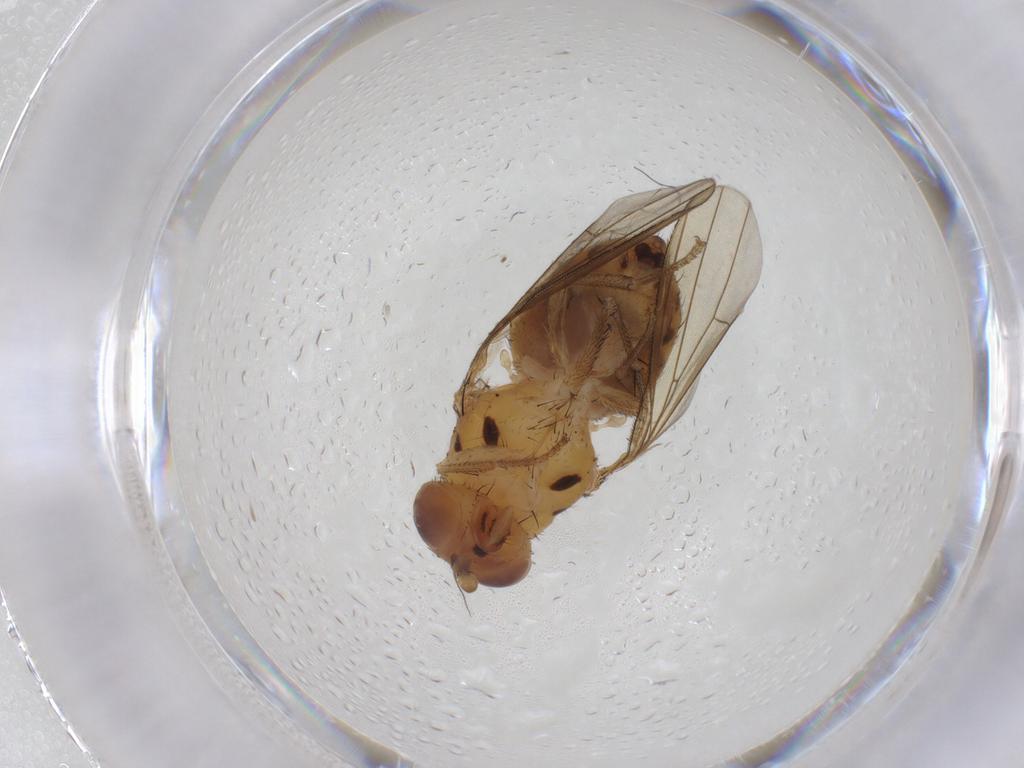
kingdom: Animalia
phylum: Arthropoda
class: Insecta
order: Diptera
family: Chloropidae
